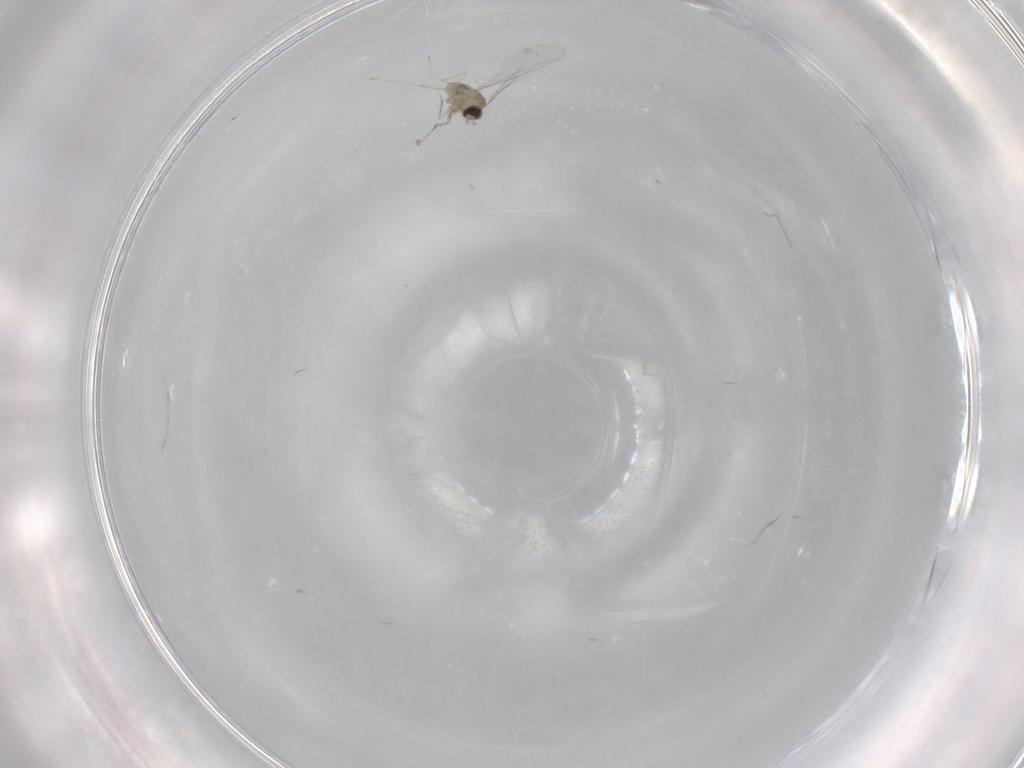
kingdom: Animalia
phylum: Arthropoda
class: Insecta
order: Diptera
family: Cecidomyiidae
